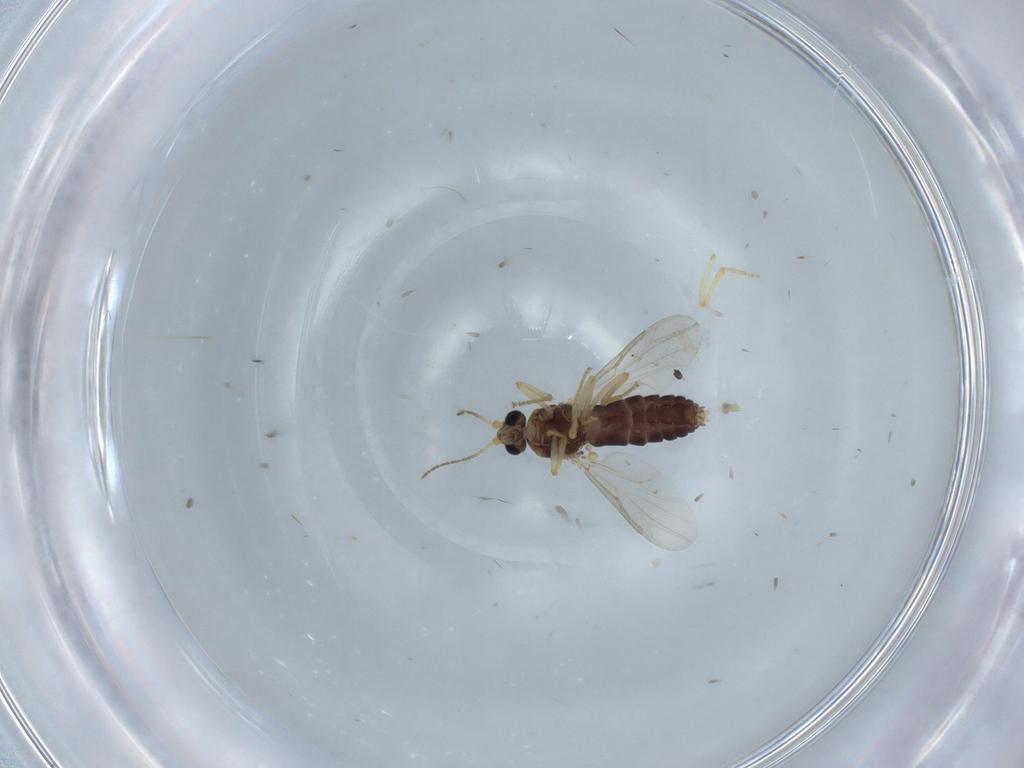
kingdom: Animalia
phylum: Arthropoda
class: Insecta
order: Diptera
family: Ceratopogonidae
